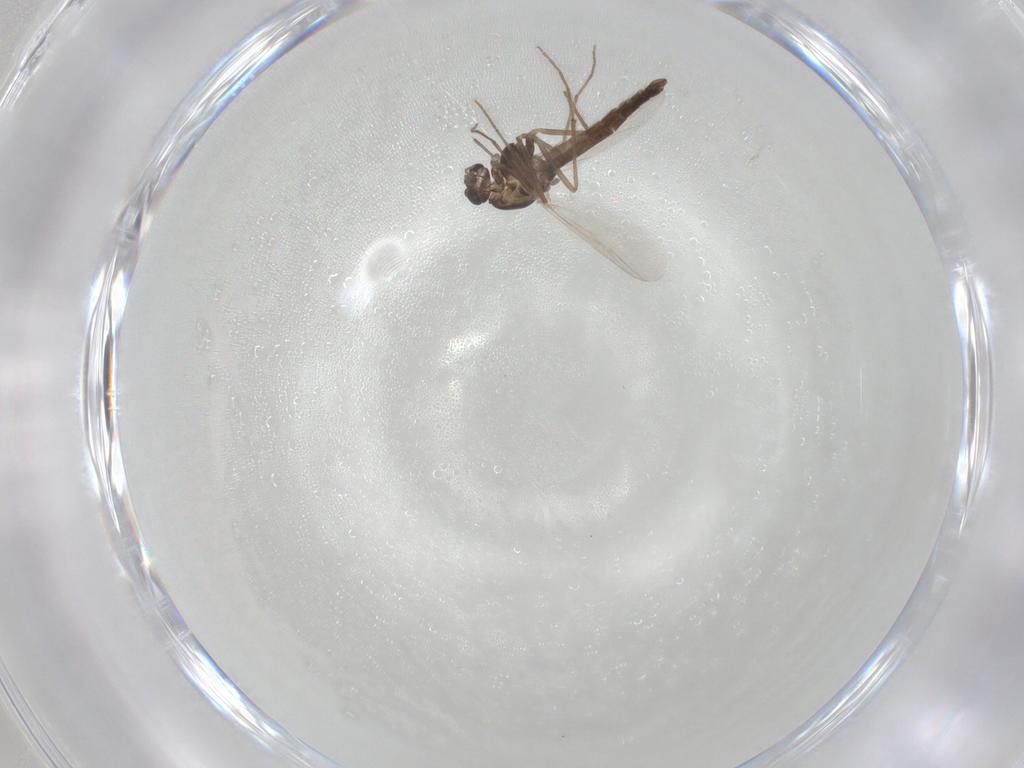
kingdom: Animalia
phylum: Arthropoda
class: Insecta
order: Diptera
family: Chironomidae
